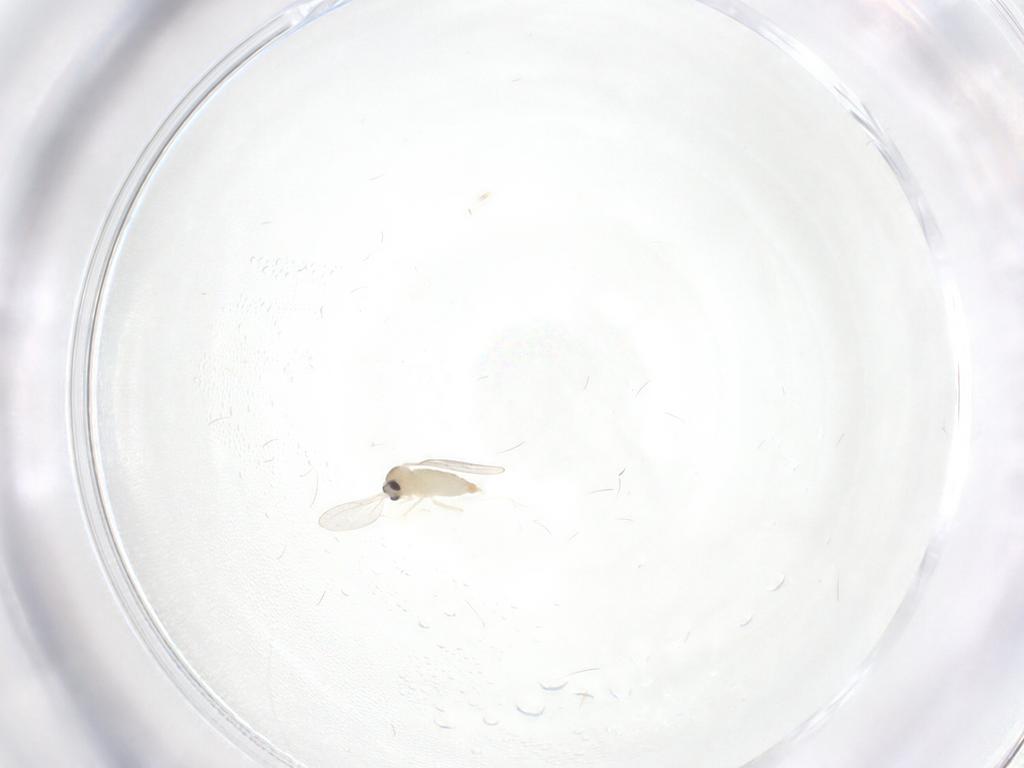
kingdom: Animalia
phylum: Arthropoda
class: Insecta
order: Diptera
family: Cecidomyiidae
